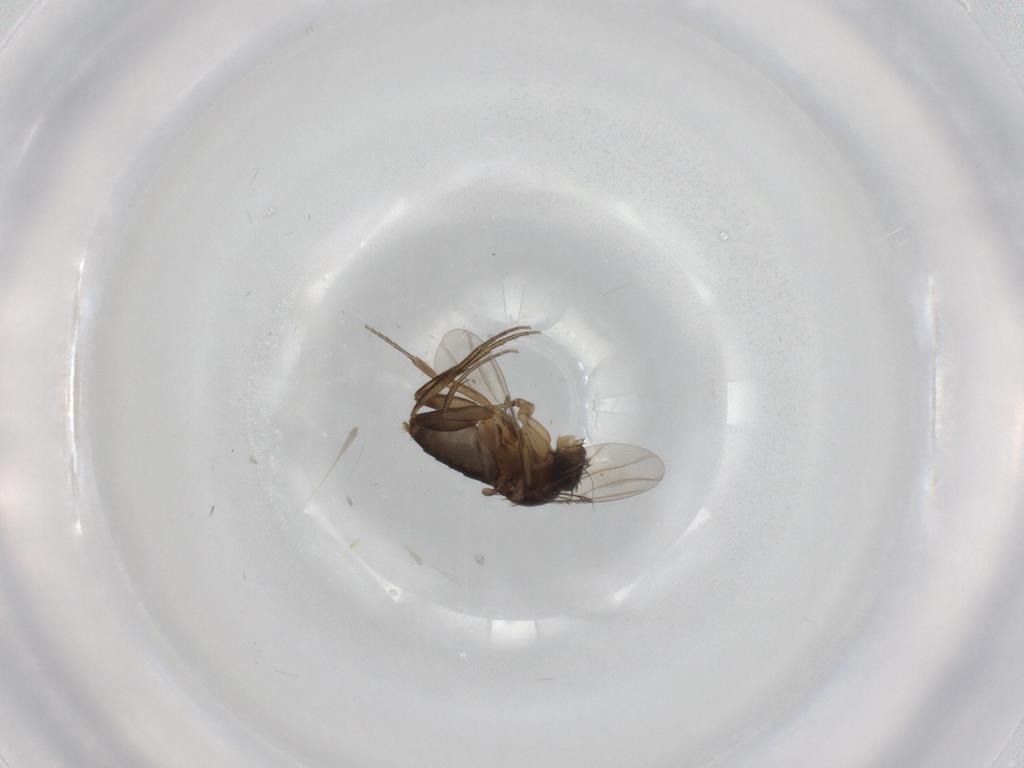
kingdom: Animalia
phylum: Arthropoda
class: Insecta
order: Diptera
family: Phoridae
